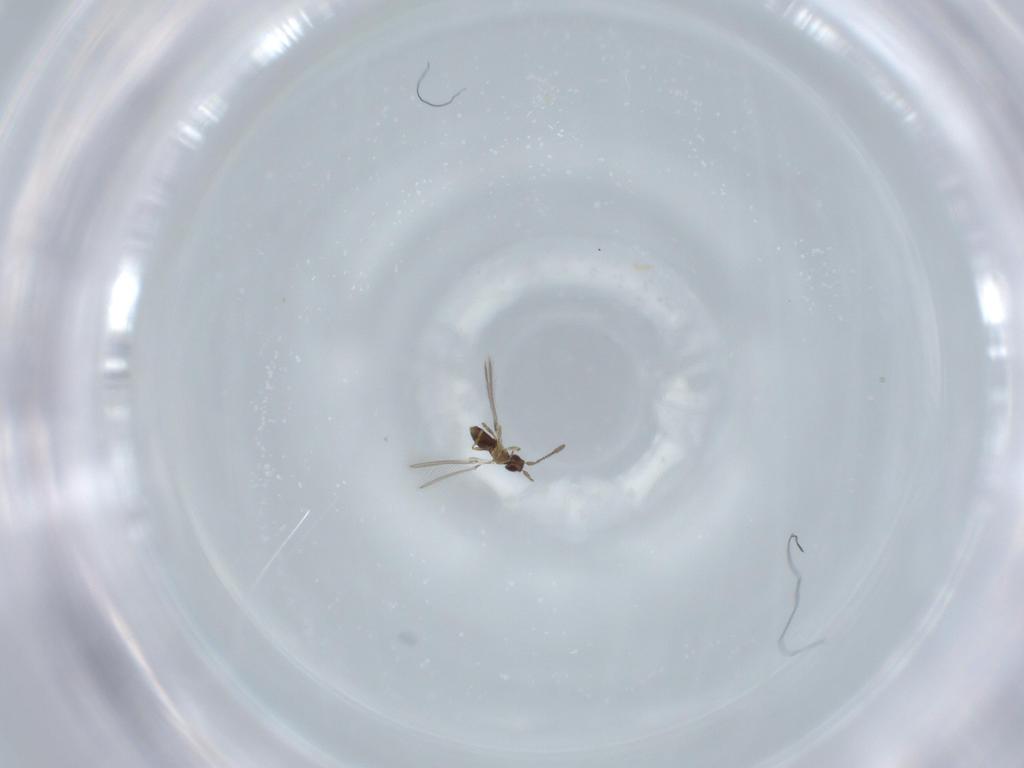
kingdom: Animalia
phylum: Arthropoda
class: Insecta
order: Hymenoptera
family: Mymaridae
